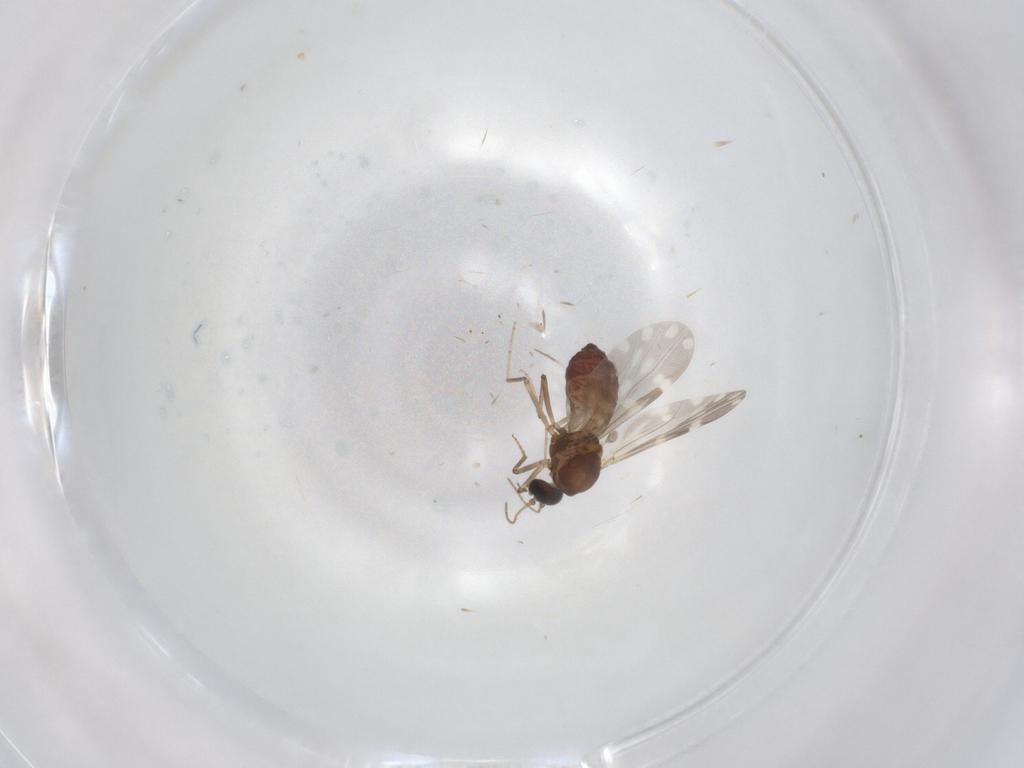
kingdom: Animalia
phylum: Arthropoda
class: Insecta
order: Diptera
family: Ceratopogonidae
